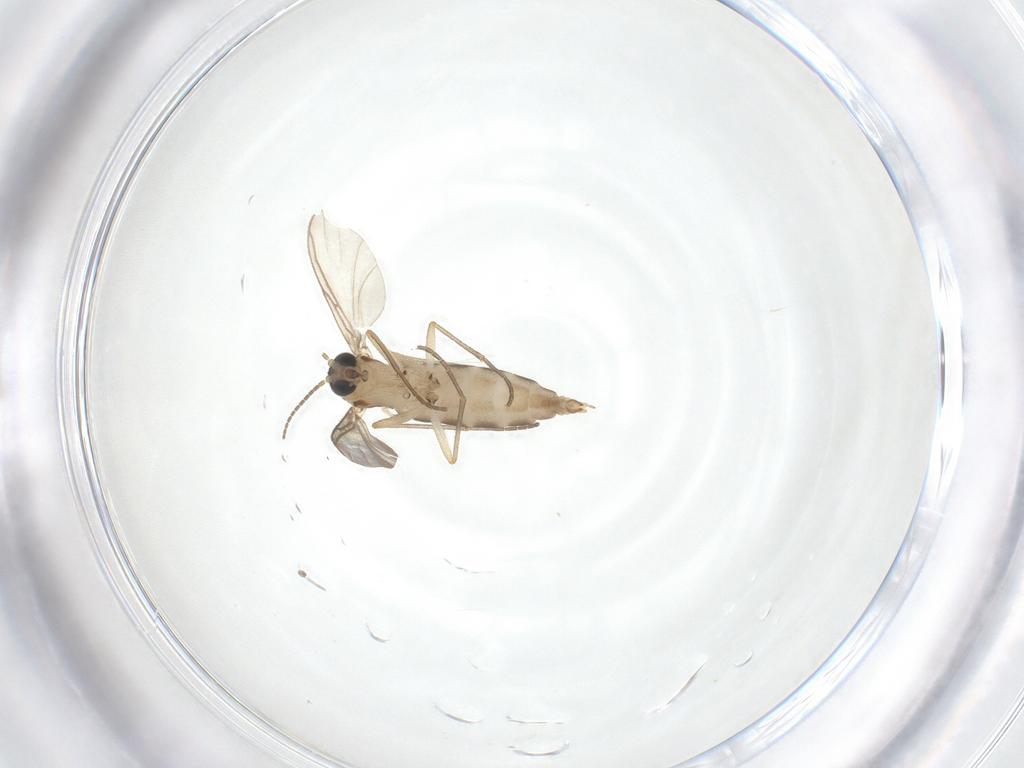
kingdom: Animalia
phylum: Arthropoda
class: Insecta
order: Diptera
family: Sciaridae
